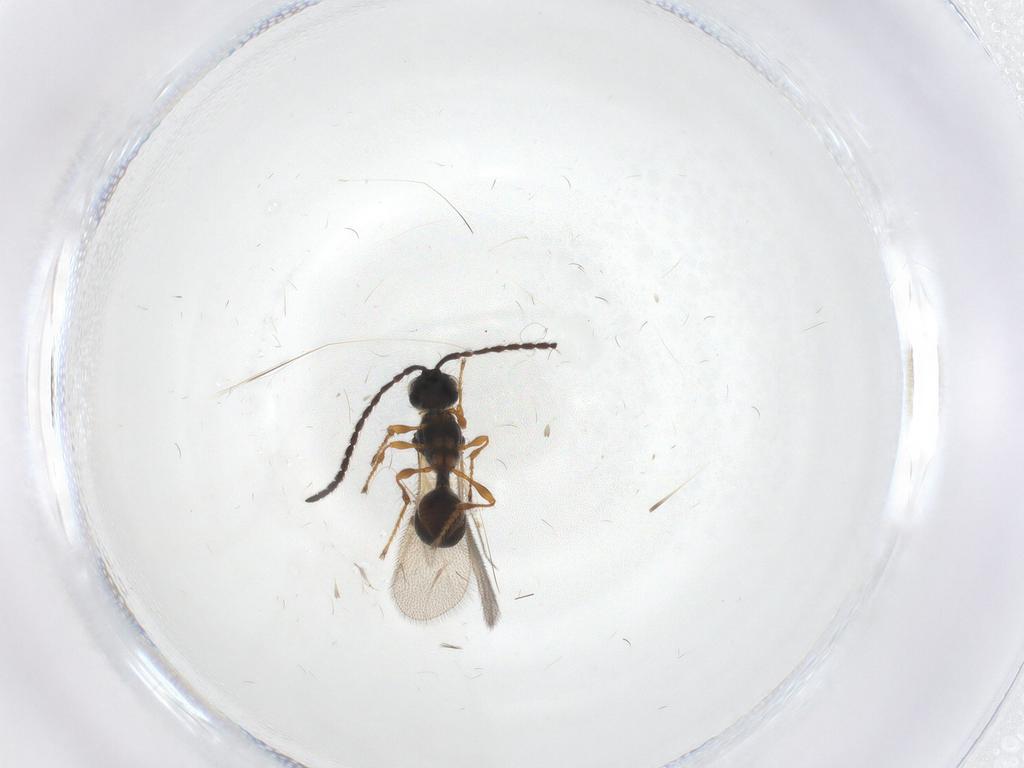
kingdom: Animalia
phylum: Arthropoda
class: Insecta
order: Hymenoptera
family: Diapriidae
